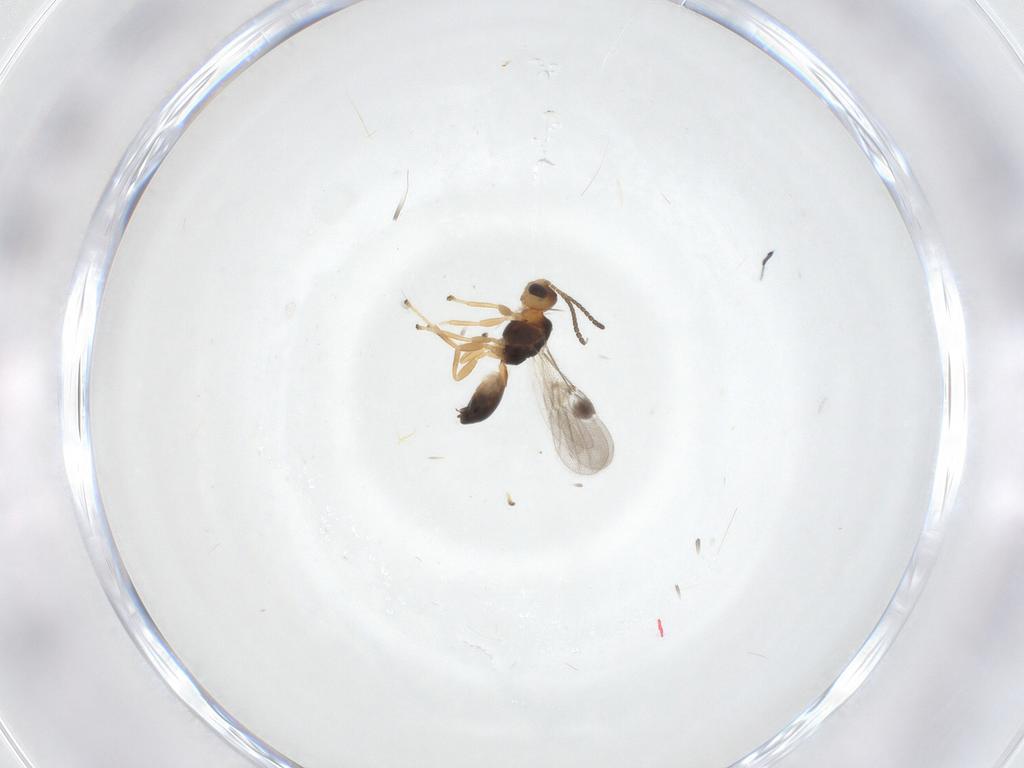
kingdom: Animalia
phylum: Arthropoda
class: Insecta
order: Hymenoptera
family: Braconidae
